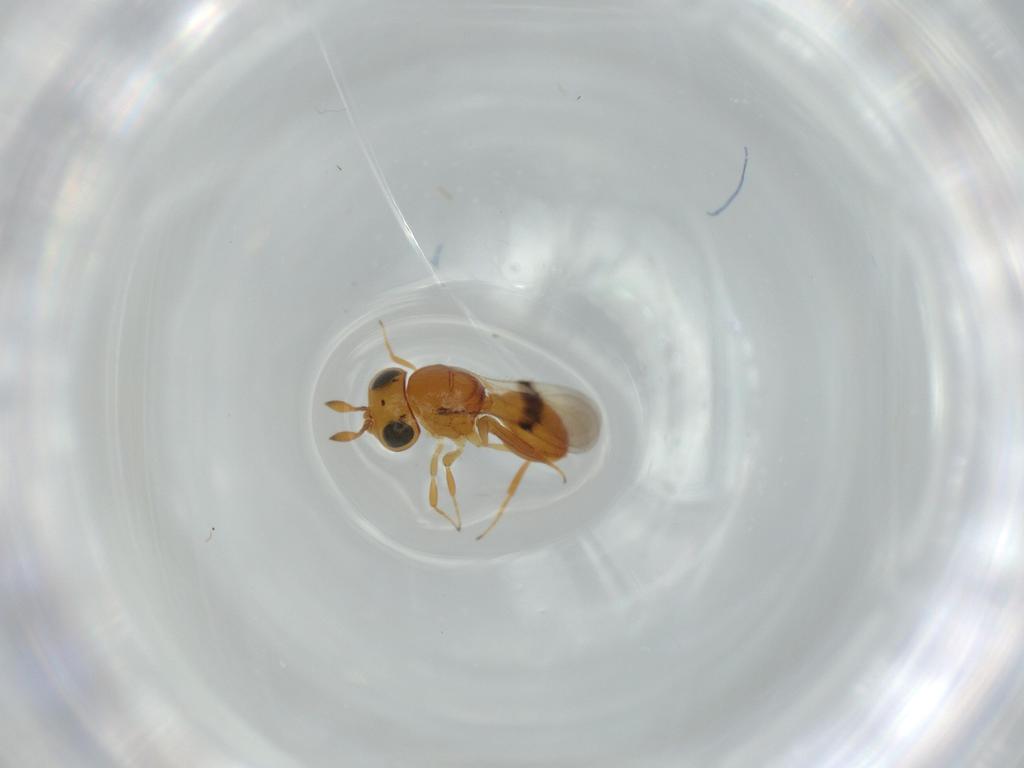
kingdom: Animalia
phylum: Arthropoda
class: Insecta
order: Hymenoptera
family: Scelionidae
